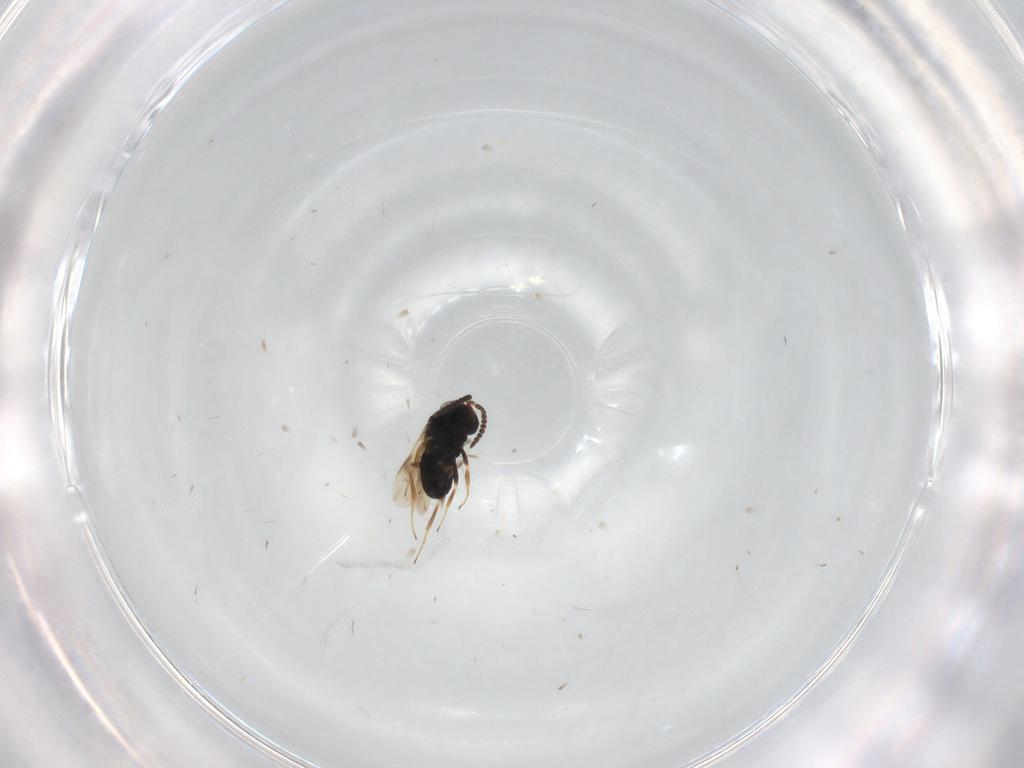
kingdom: Animalia
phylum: Arthropoda
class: Insecta
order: Hymenoptera
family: Scelionidae
